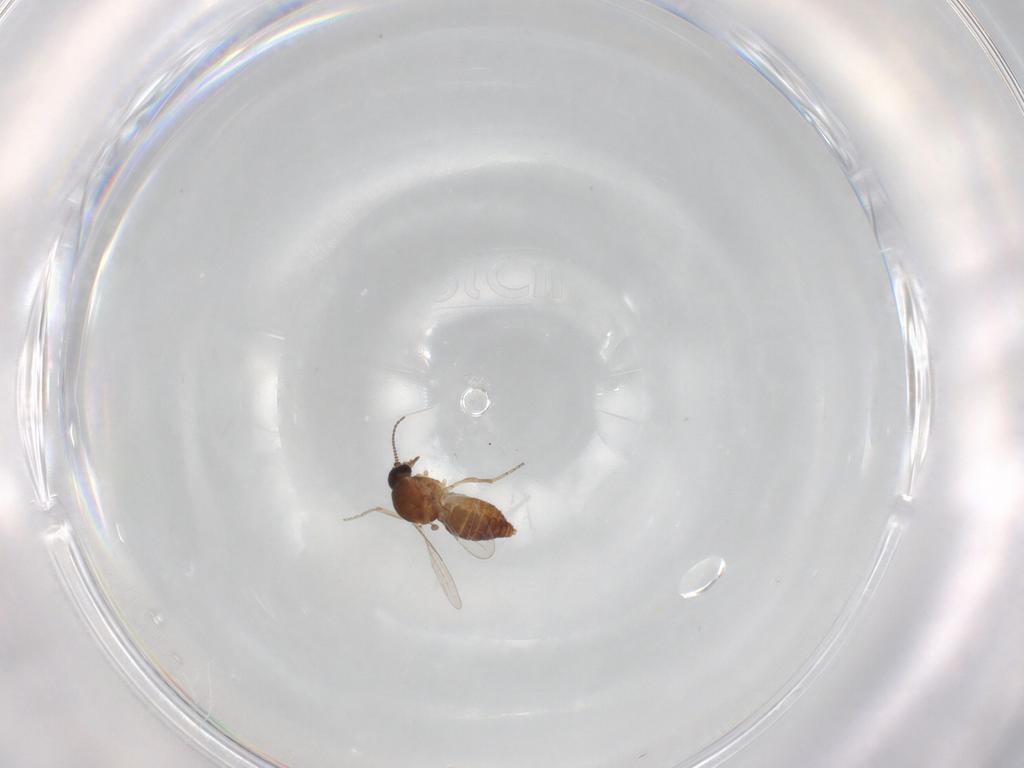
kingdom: Animalia
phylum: Arthropoda
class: Insecta
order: Diptera
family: Ceratopogonidae
